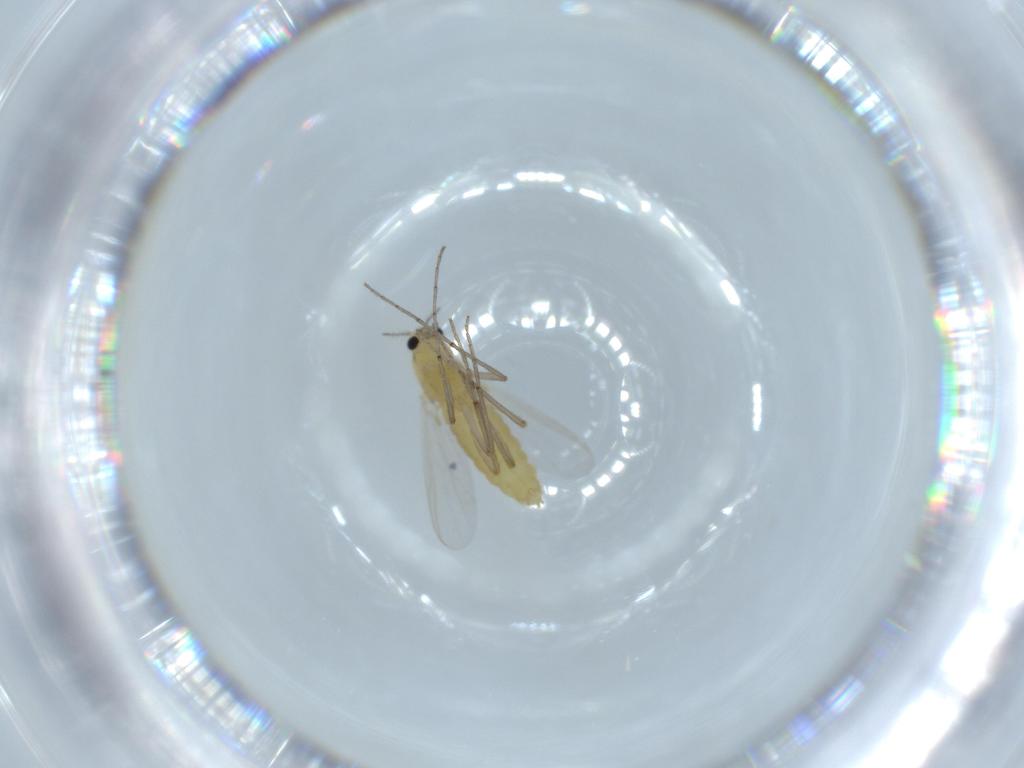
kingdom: Animalia
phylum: Arthropoda
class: Insecta
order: Diptera
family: Chironomidae
